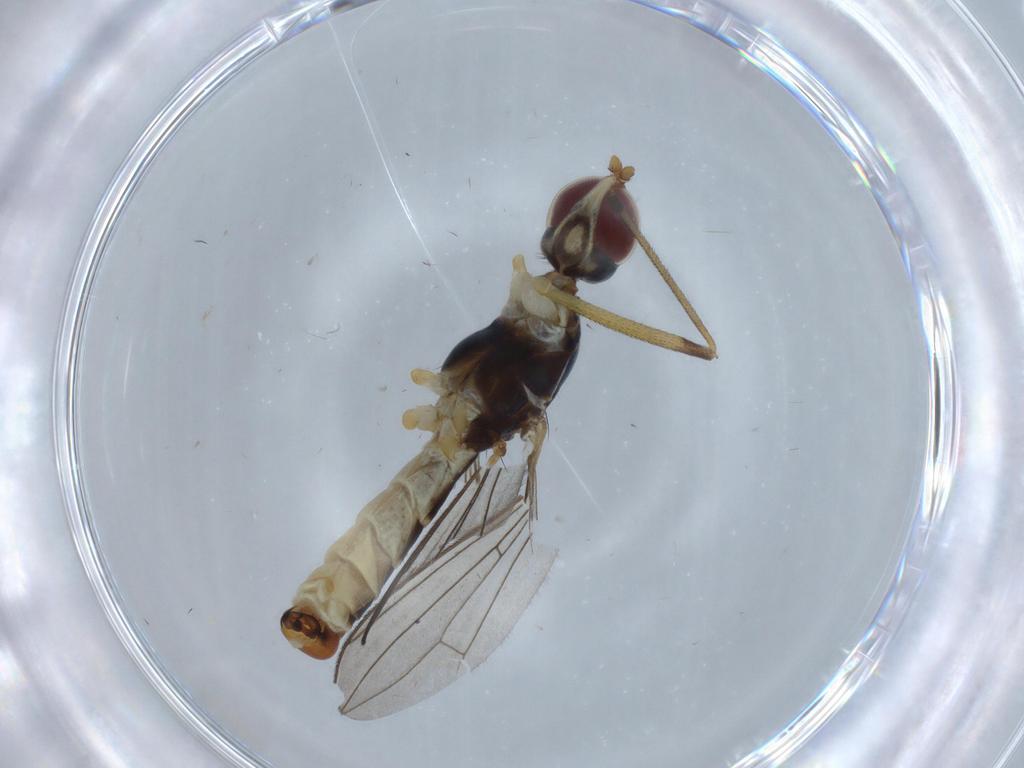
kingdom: Animalia
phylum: Arthropoda
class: Insecta
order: Diptera
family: Micropezidae
